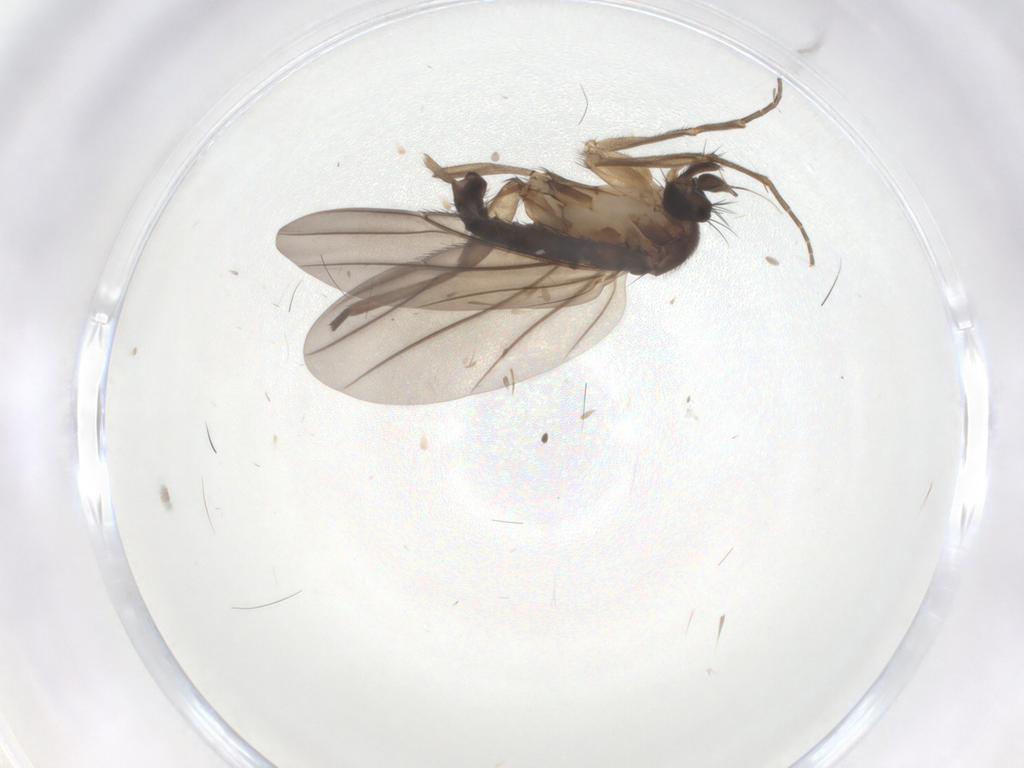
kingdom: Animalia
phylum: Arthropoda
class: Insecta
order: Diptera
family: Phoridae
